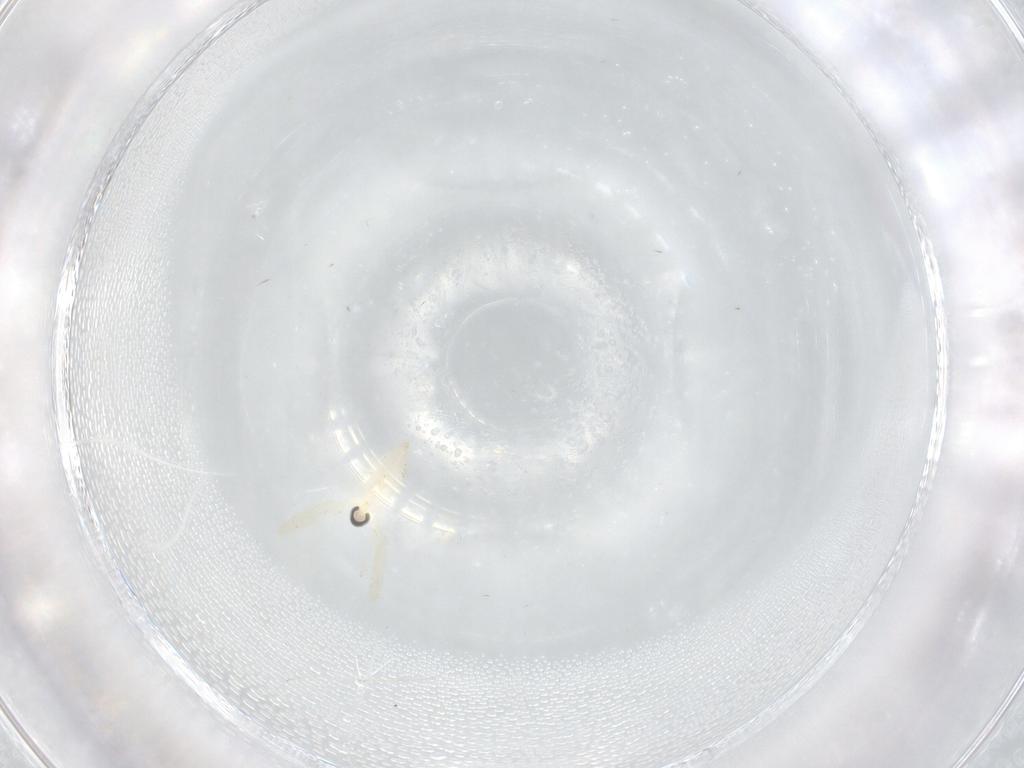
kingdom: Animalia
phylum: Arthropoda
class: Insecta
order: Diptera
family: Cecidomyiidae
